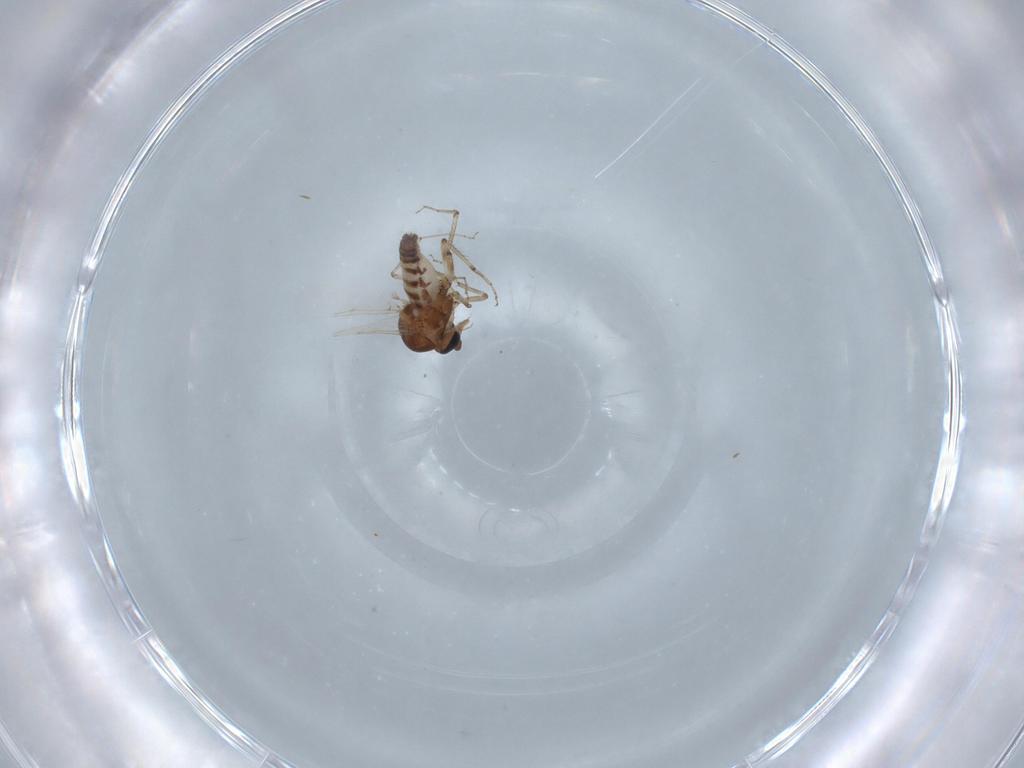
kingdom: Animalia
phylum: Arthropoda
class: Insecta
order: Diptera
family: Ceratopogonidae
